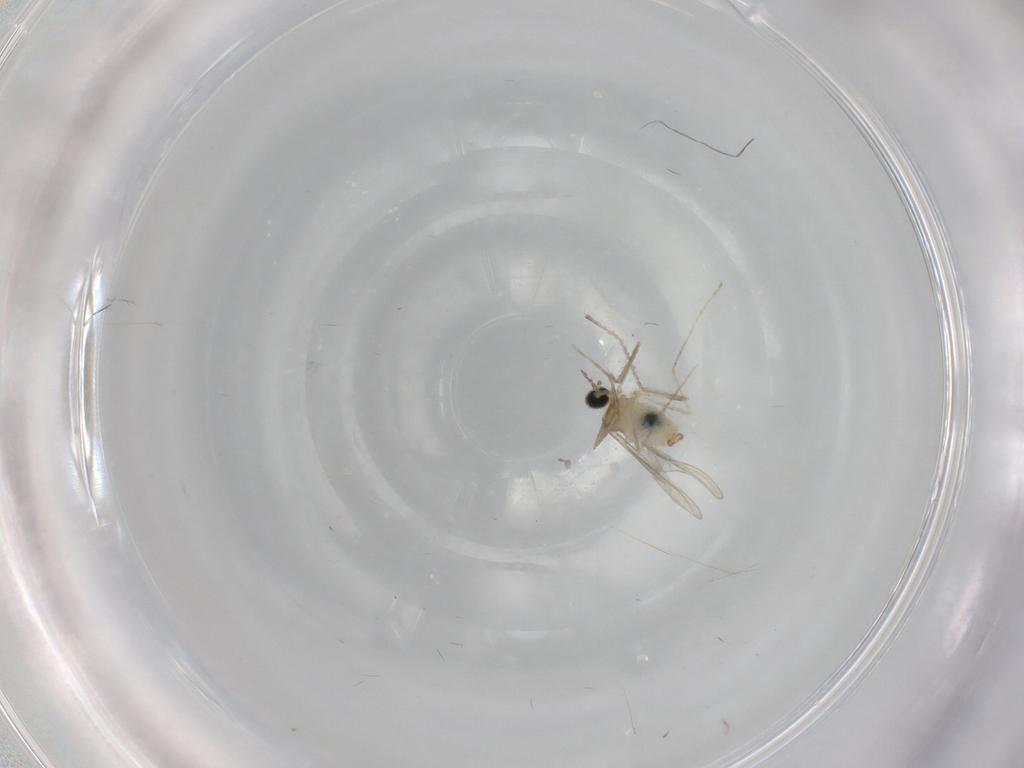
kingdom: Animalia
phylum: Arthropoda
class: Insecta
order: Diptera
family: Cecidomyiidae
